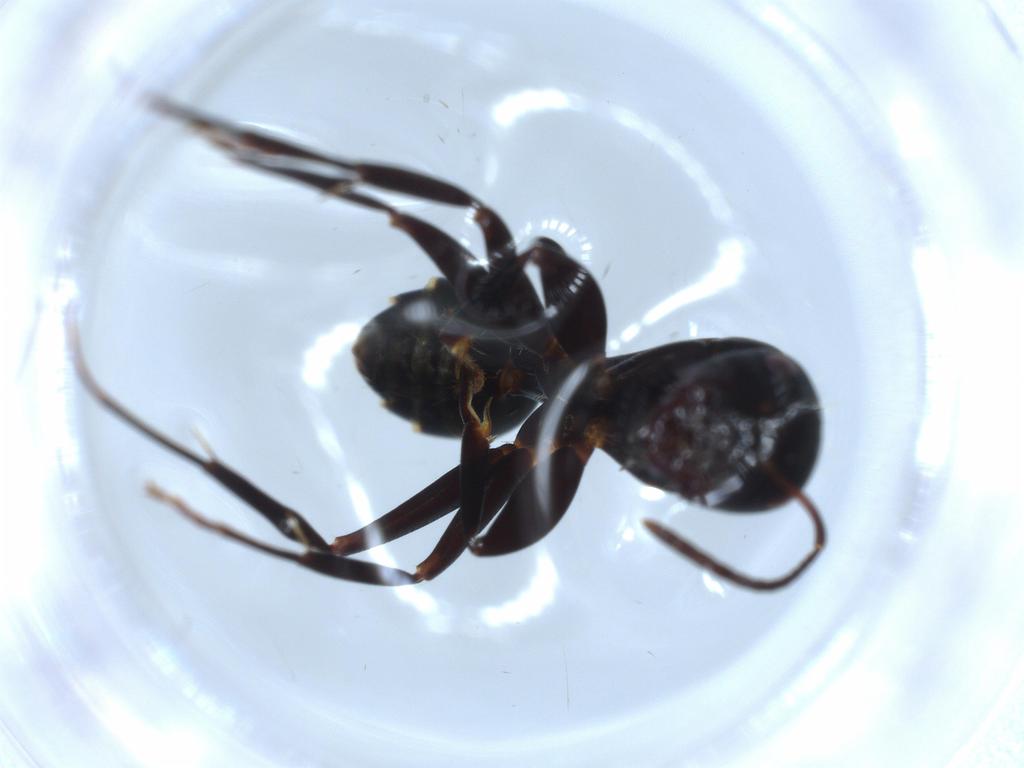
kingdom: Animalia
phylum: Arthropoda
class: Insecta
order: Hymenoptera
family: Formicidae
